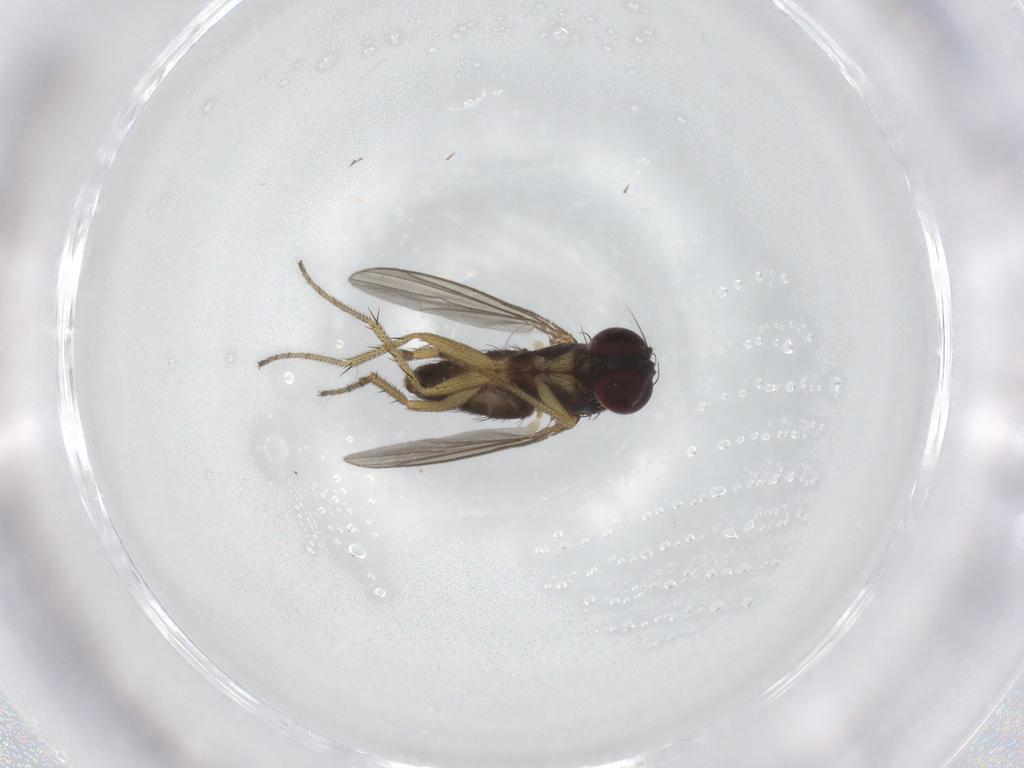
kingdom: Animalia
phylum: Arthropoda
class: Insecta
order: Diptera
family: Dolichopodidae
